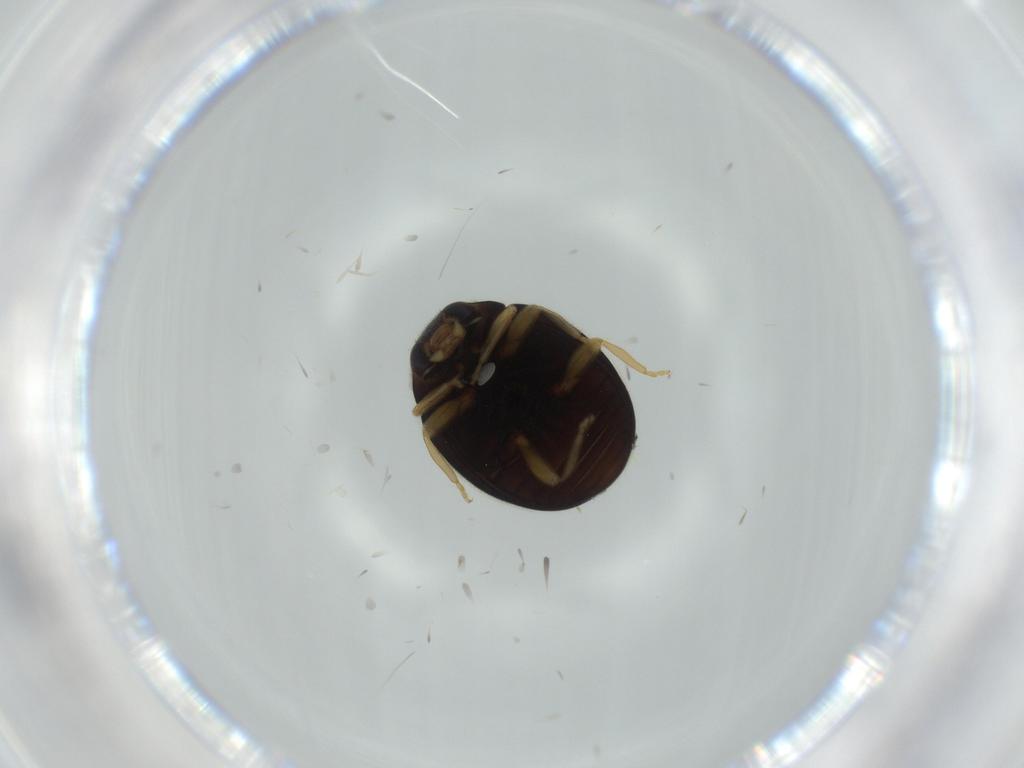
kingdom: Animalia
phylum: Arthropoda
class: Insecta
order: Coleoptera
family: Coccinellidae
